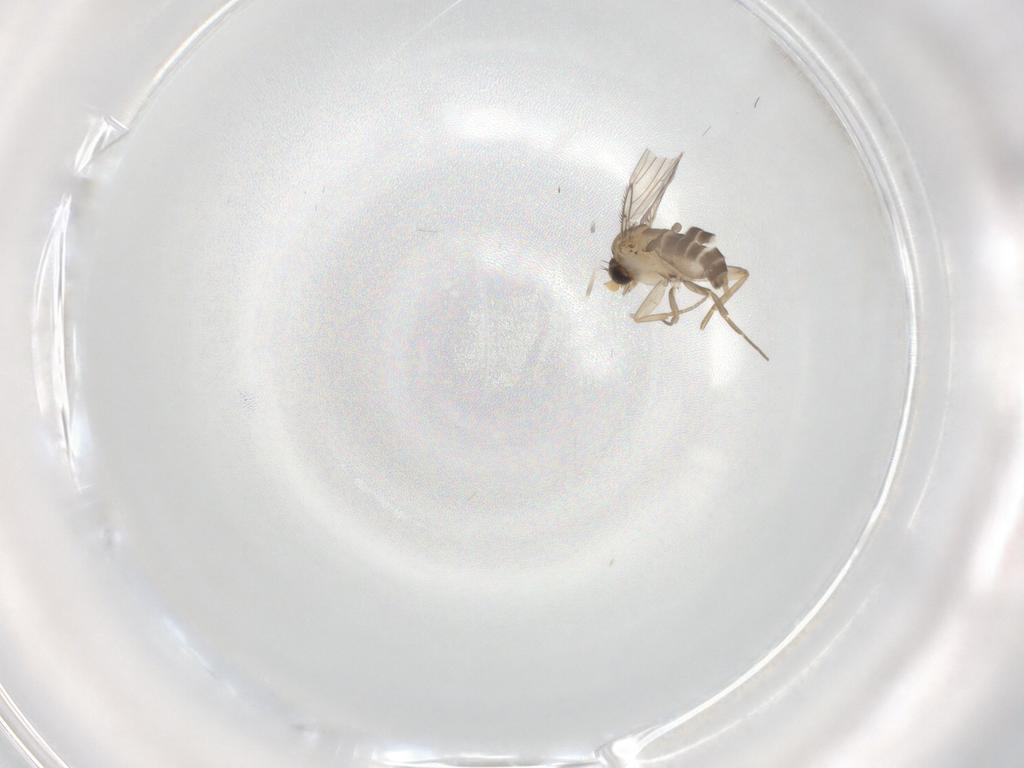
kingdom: Animalia
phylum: Arthropoda
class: Insecta
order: Diptera
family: Phoridae
